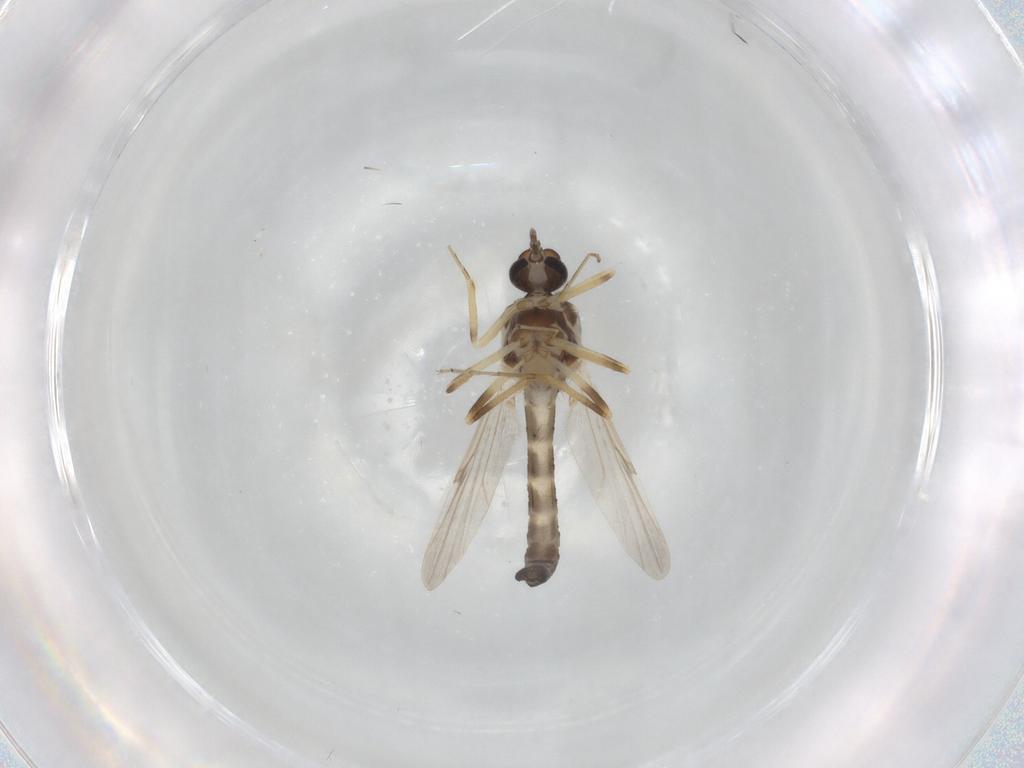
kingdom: Animalia
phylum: Arthropoda
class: Insecta
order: Diptera
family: Ceratopogonidae
